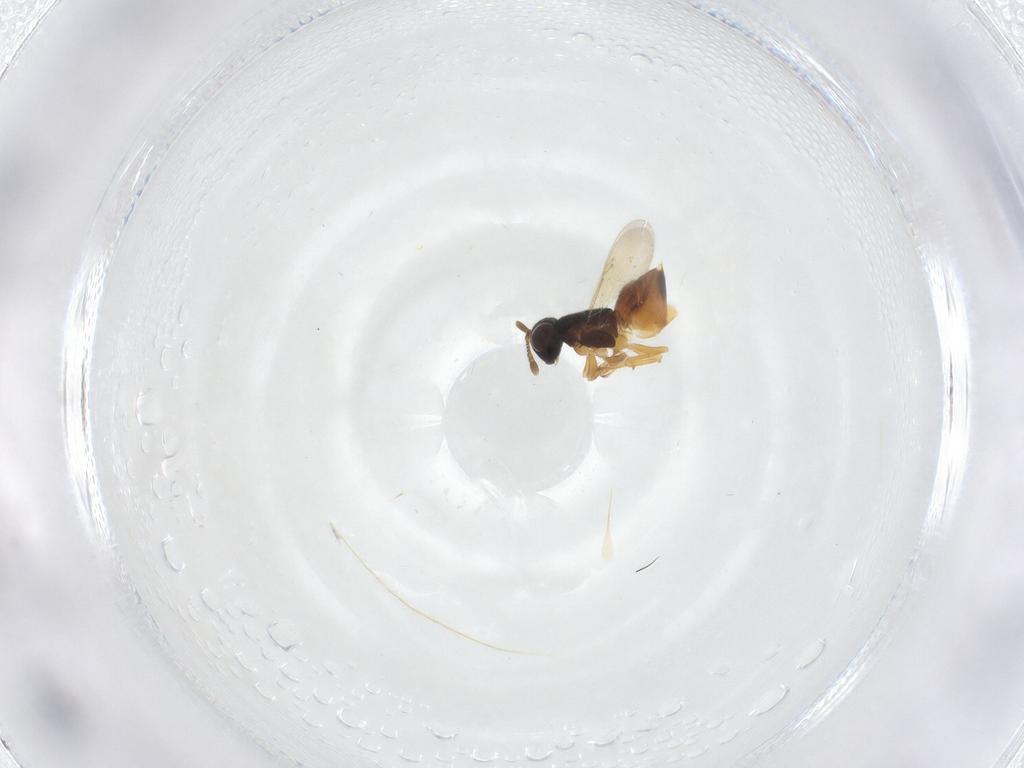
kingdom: Animalia
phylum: Arthropoda
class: Insecta
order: Hymenoptera
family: Encyrtidae
